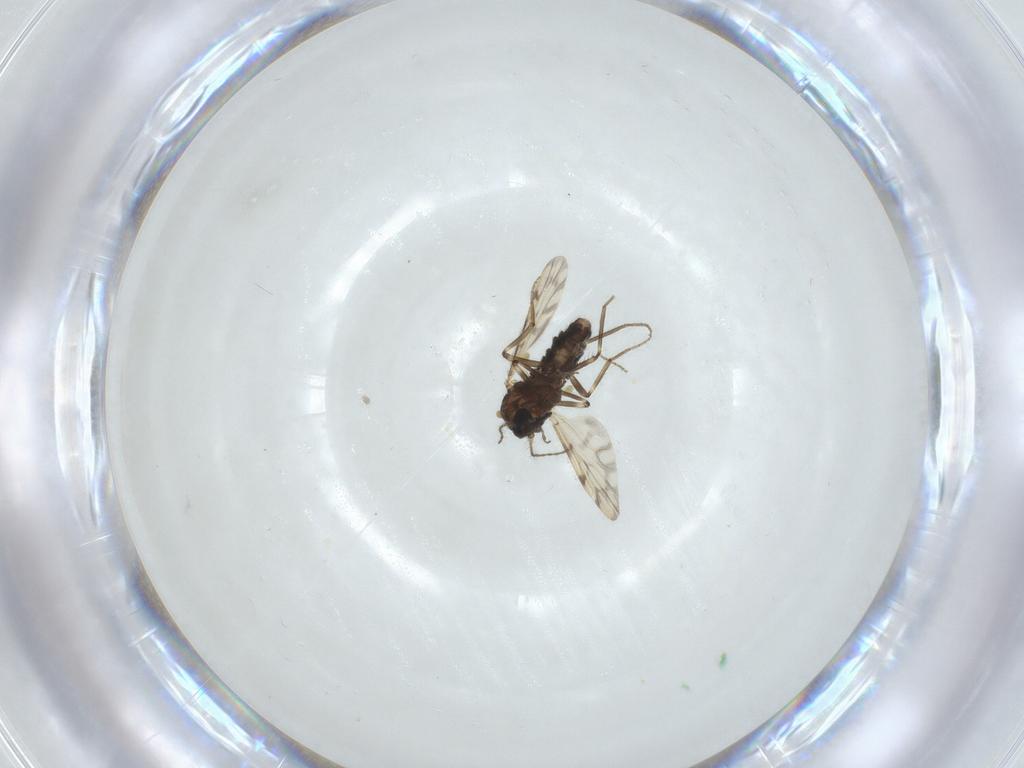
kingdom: Animalia
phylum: Arthropoda
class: Insecta
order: Diptera
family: Ceratopogonidae
